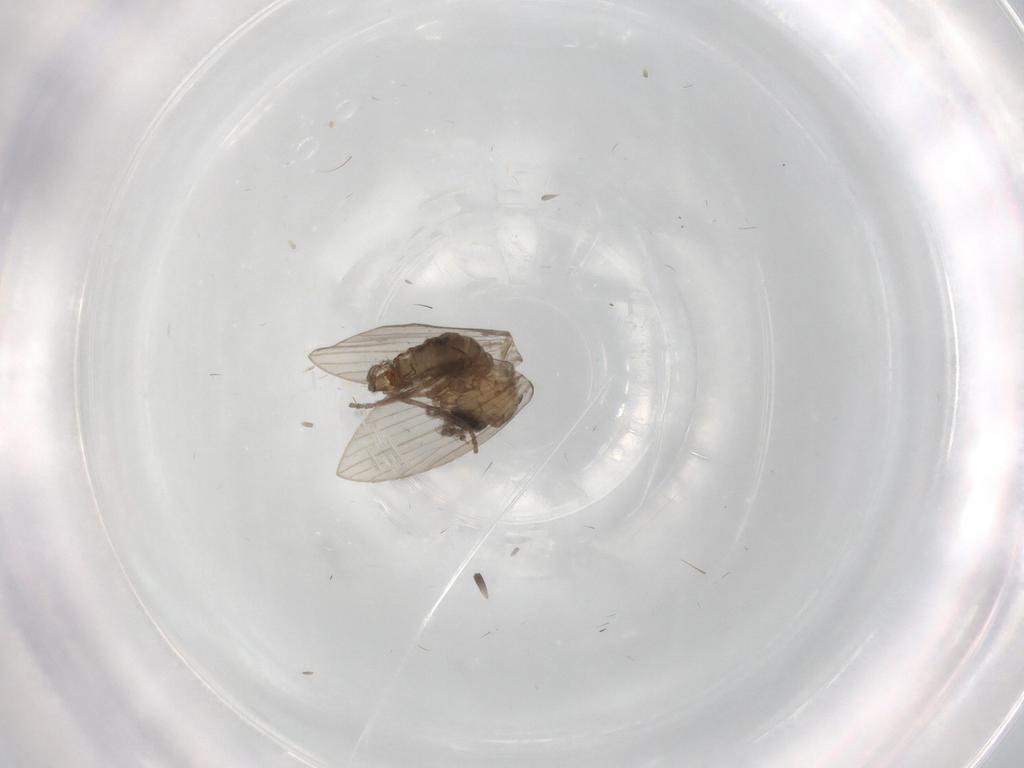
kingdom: Animalia
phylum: Arthropoda
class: Insecta
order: Diptera
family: Psychodidae
